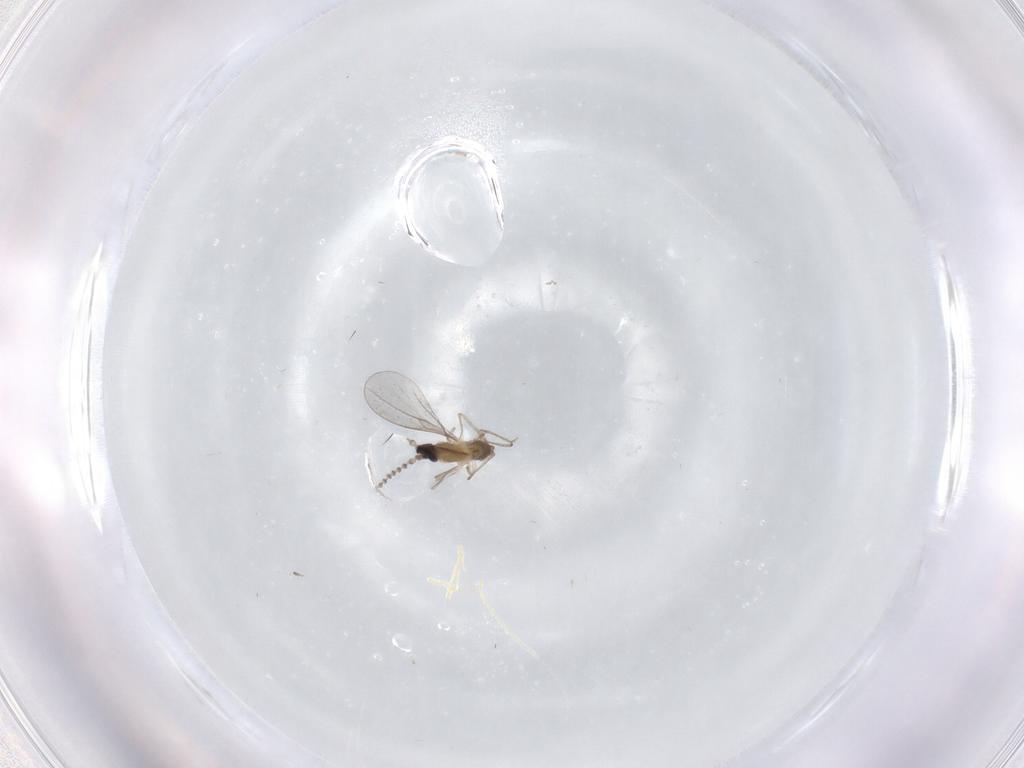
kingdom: Animalia
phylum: Arthropoda
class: Insecta
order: Diptera
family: Cecidomyiidae
